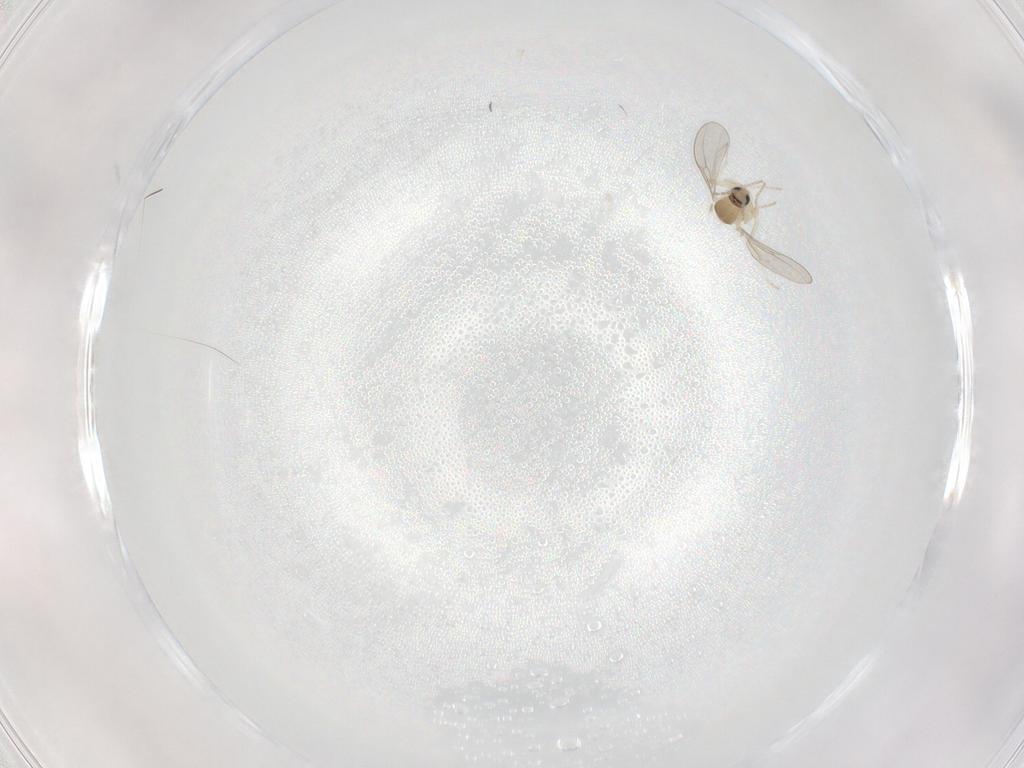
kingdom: Animalia
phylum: Arthropoda
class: Insecta
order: Diptera
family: Cecidomyiidae
